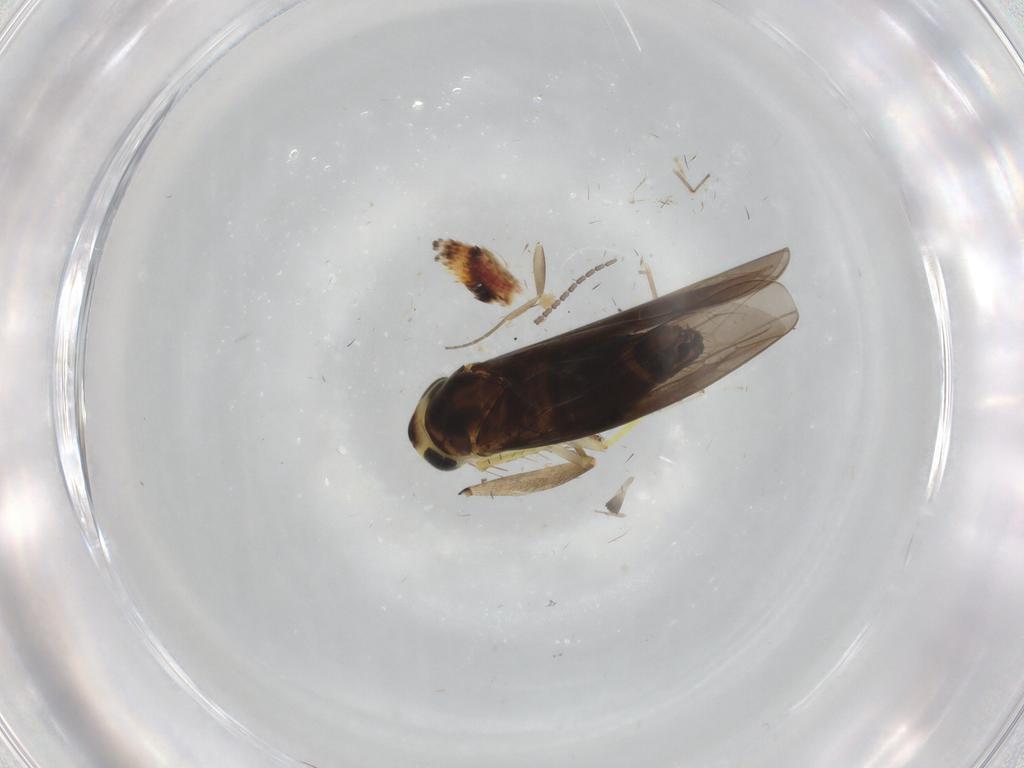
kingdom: Animalia
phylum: Arthropoda
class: Insecta
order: Hemiptera
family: Cicadellidae
